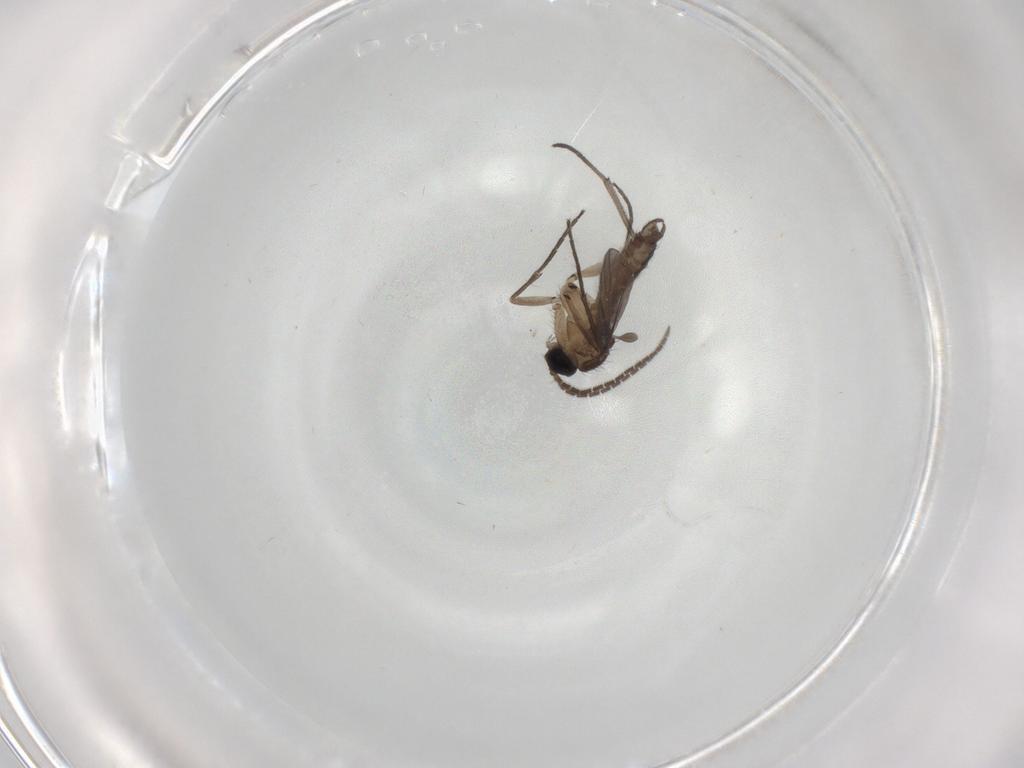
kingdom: Animalia
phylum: Arthropoda
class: Insecta
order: Diptera
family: Sciaridae
